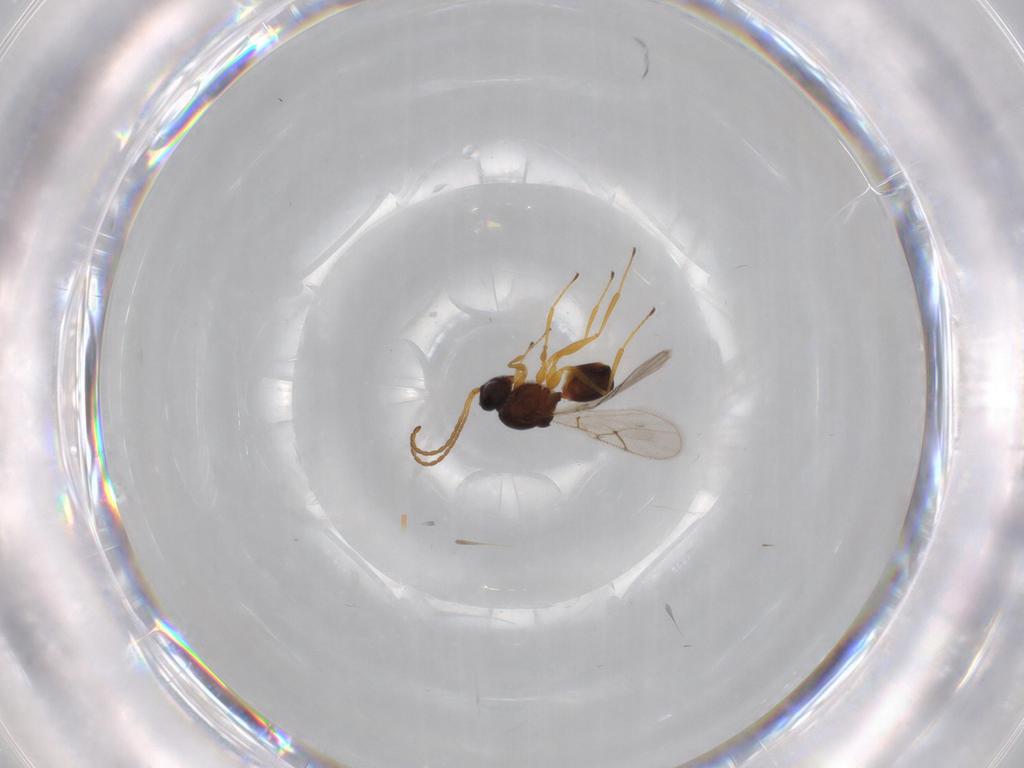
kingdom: Animalia
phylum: Arthropoda
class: Insecta
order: Hymenoptera
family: Figitidae
